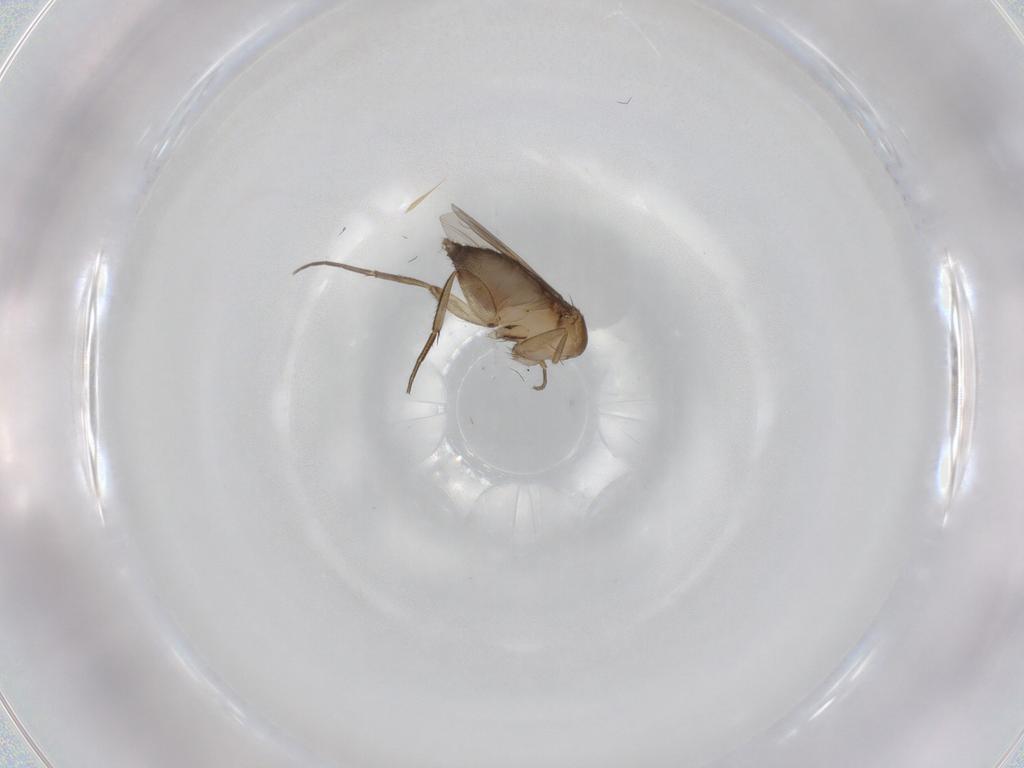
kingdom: Animalia
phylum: Arthropoda
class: Insecta
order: Diptera
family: Phoridae
